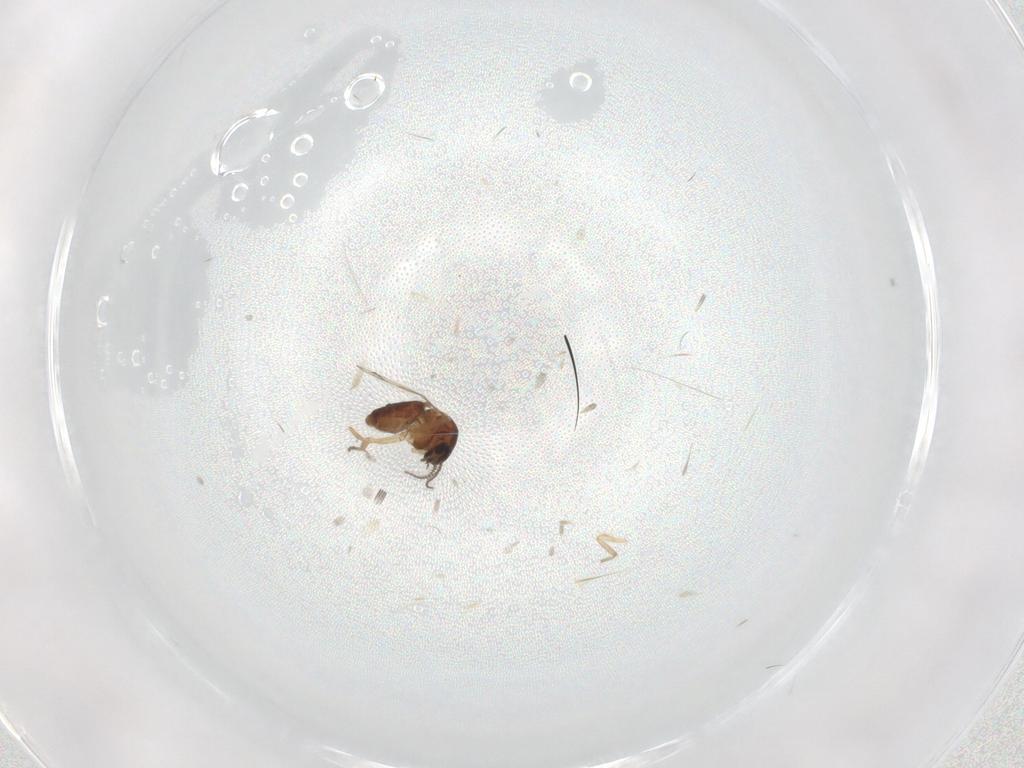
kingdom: Animalia
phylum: Arthropoda
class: Insecta
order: Diptera
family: Ceratopogonidae
